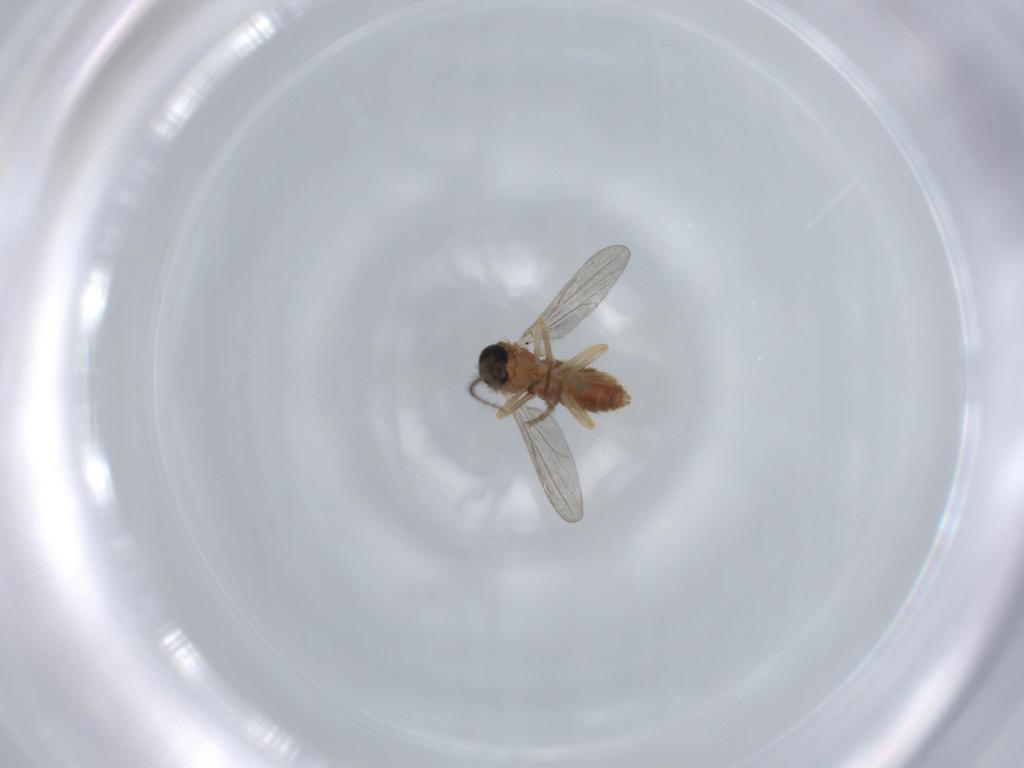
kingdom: Animalia
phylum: Arthropoda
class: Insecta
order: Diptera
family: Ceratopogonidae
